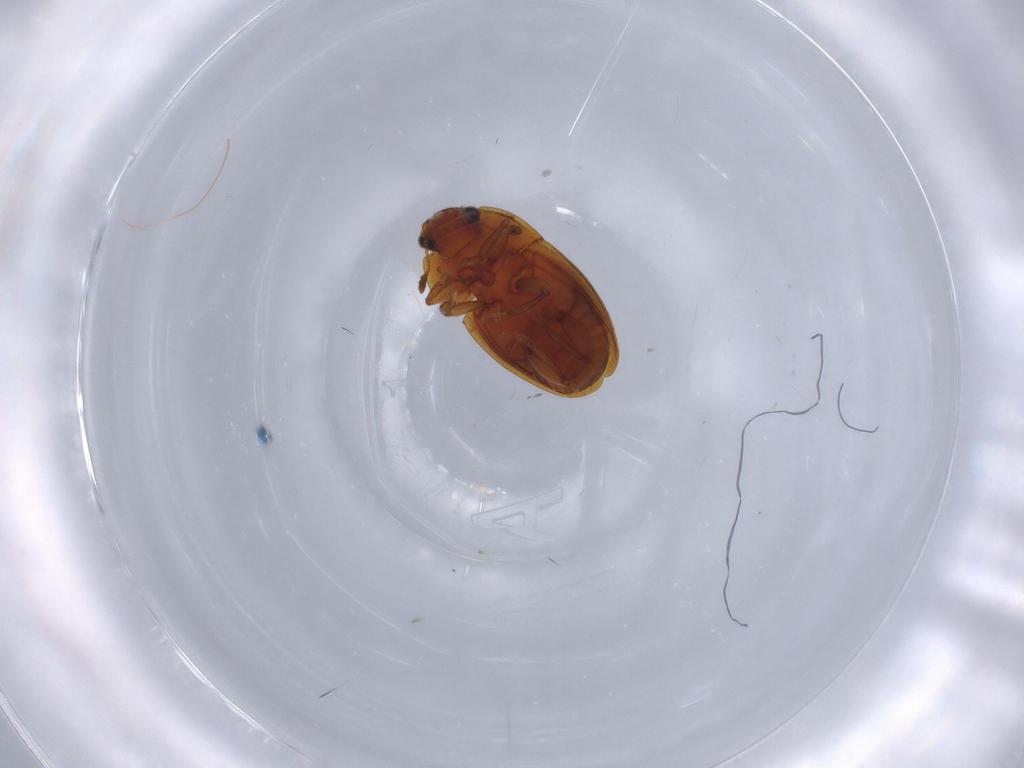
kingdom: Animalia
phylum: Arthropoda
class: Insecta
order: Coleoptera
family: Nitidulidae
